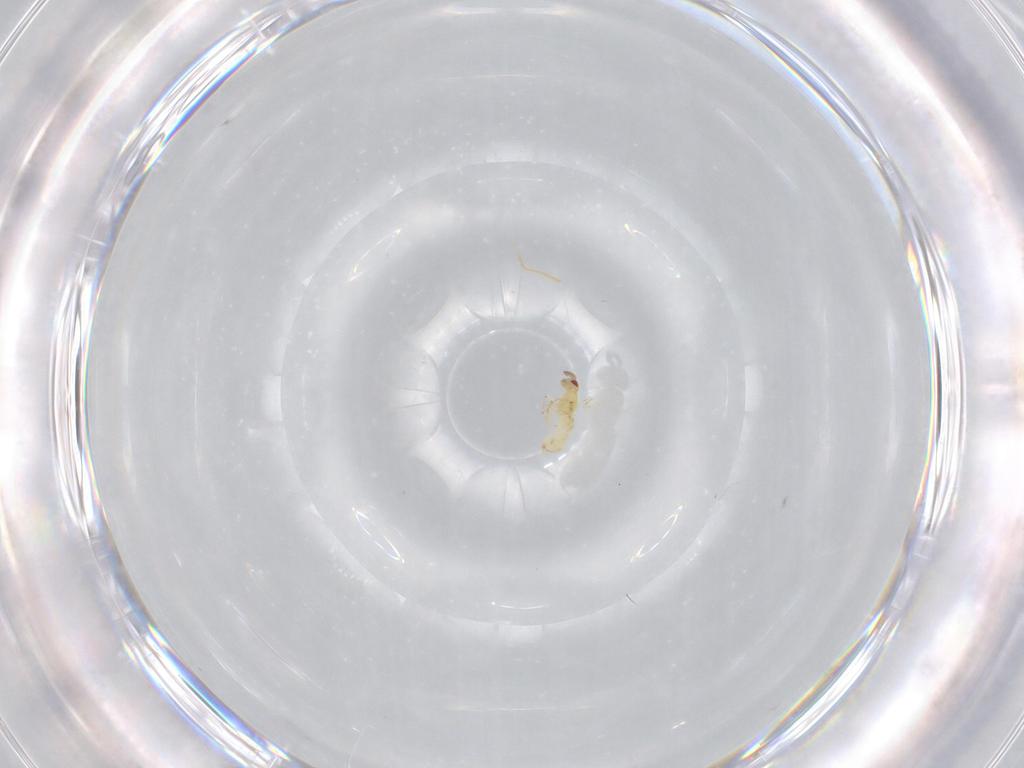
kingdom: Animalia
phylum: Arthropoda
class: Insecta
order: Hymenoptera
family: Trichogrammatidae
